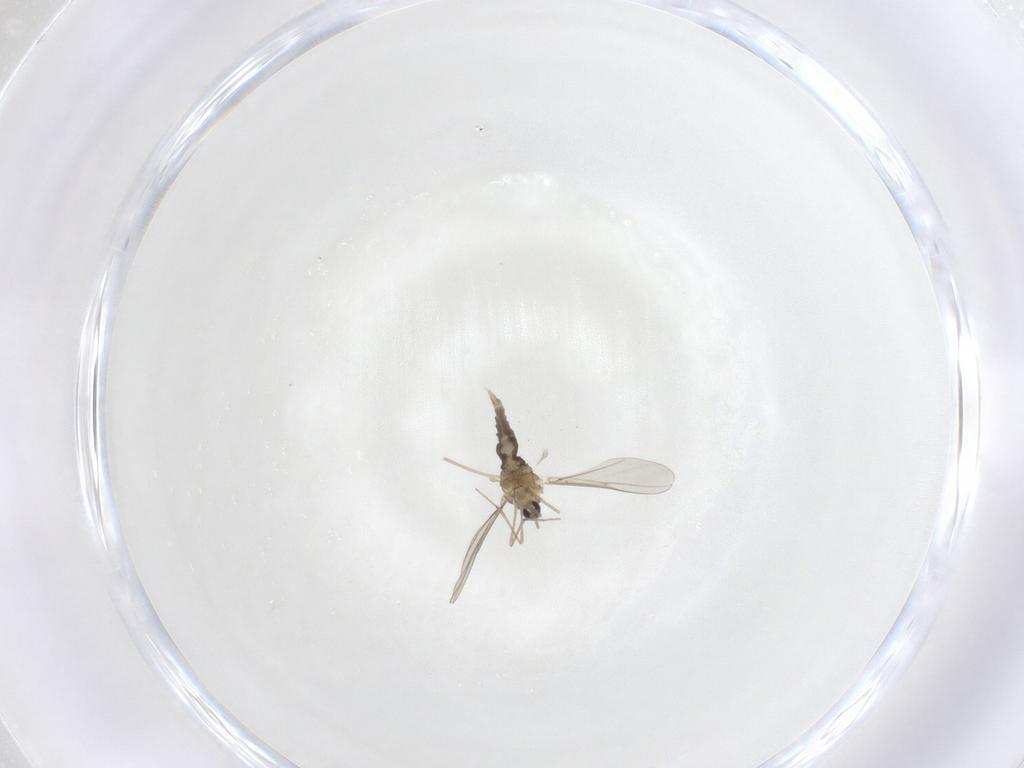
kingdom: Animalia
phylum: Arthropoda
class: Insecta
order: Diptera
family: Cecidomyiidae
